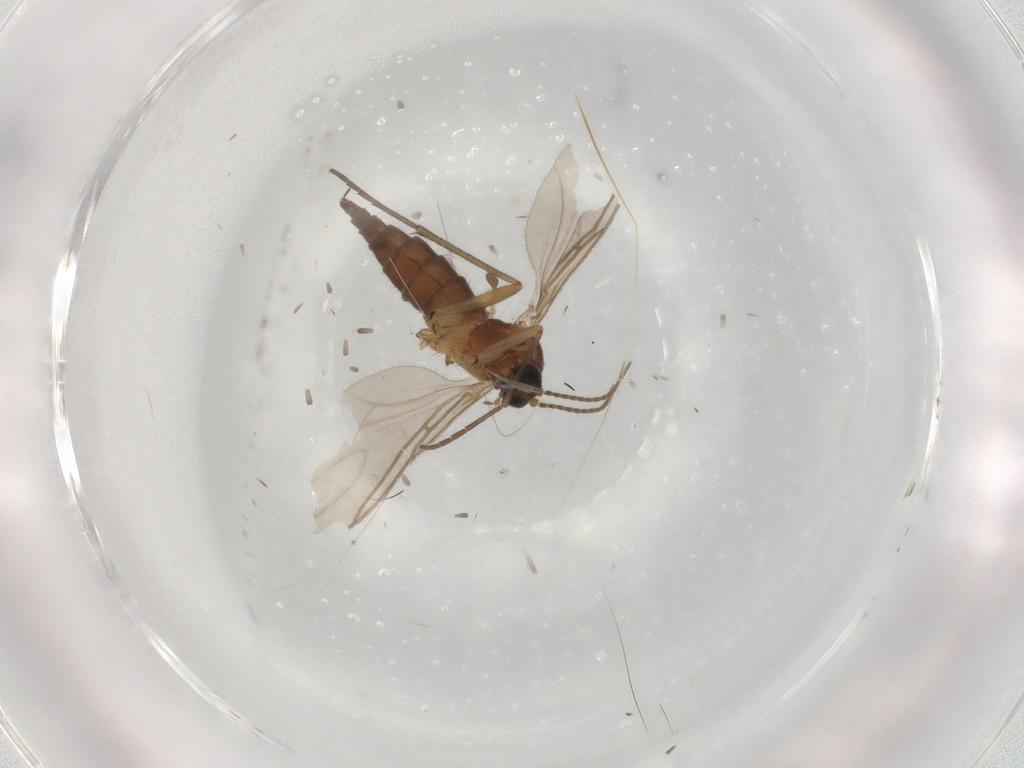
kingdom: Animalia
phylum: Arthropoda
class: Insecta
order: Diptera
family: Sciaridae
